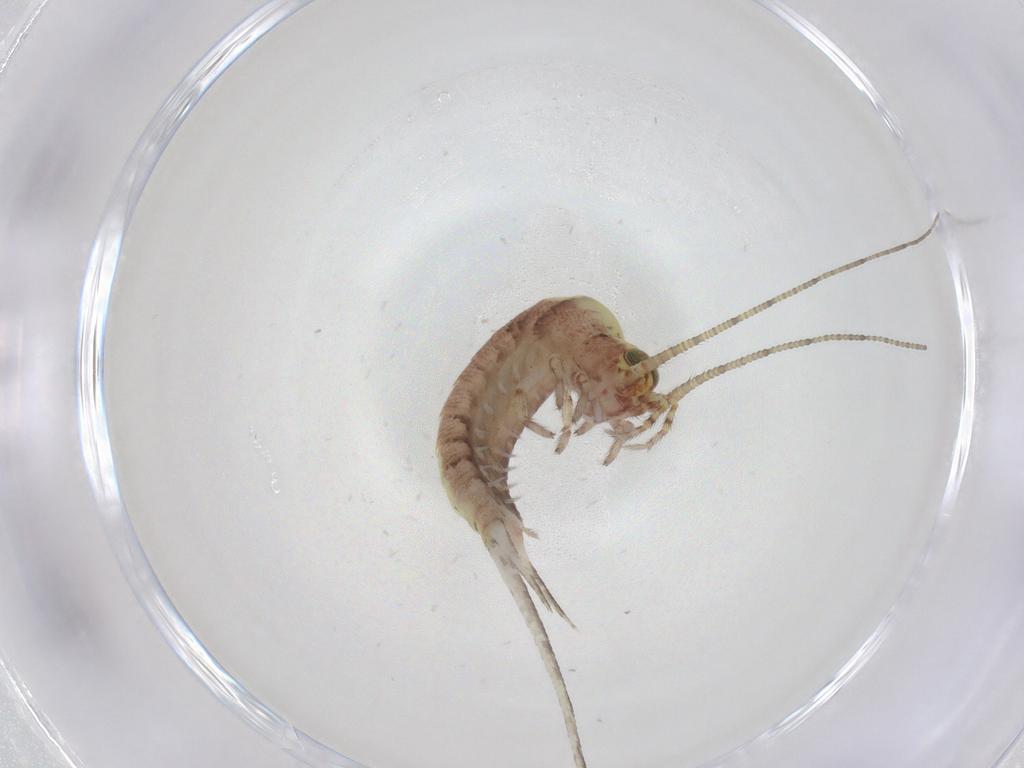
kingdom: Animalia
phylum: Arthropoda
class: Insecta
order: Archaeognatha
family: Machilidae
